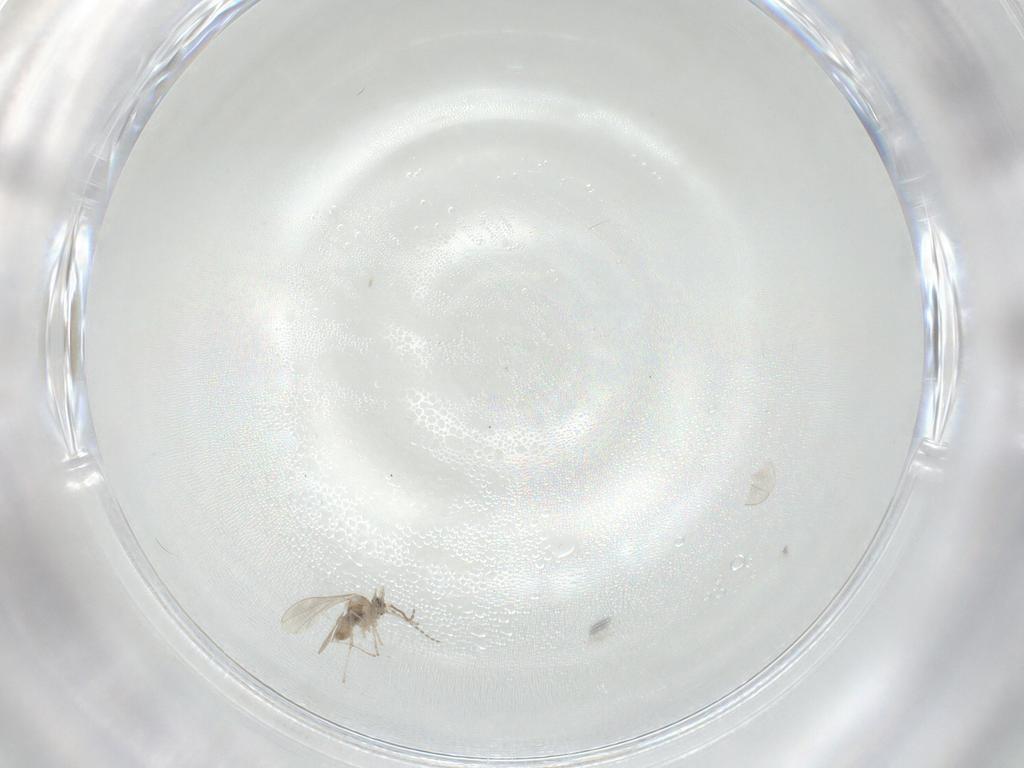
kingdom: Animalia
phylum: Arthropoda
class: Insecta
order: Diptera
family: Cecidomyiidae
